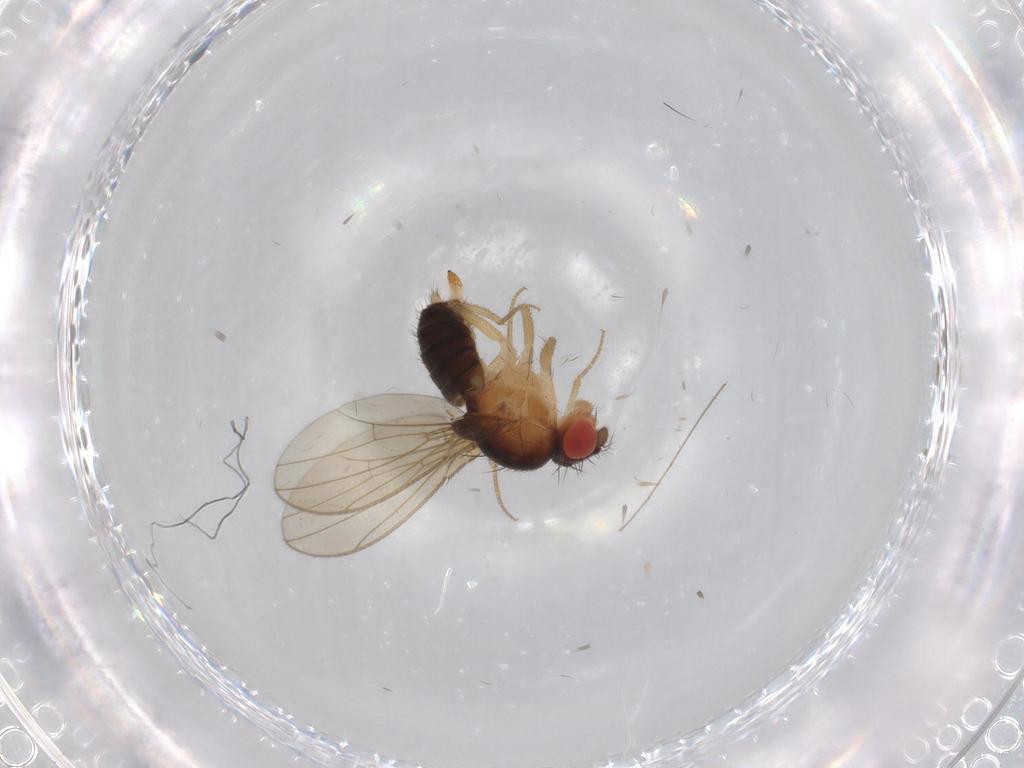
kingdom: Animalia
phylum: Arthropoda
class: Insecta
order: Diptera
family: Drosophilidae
